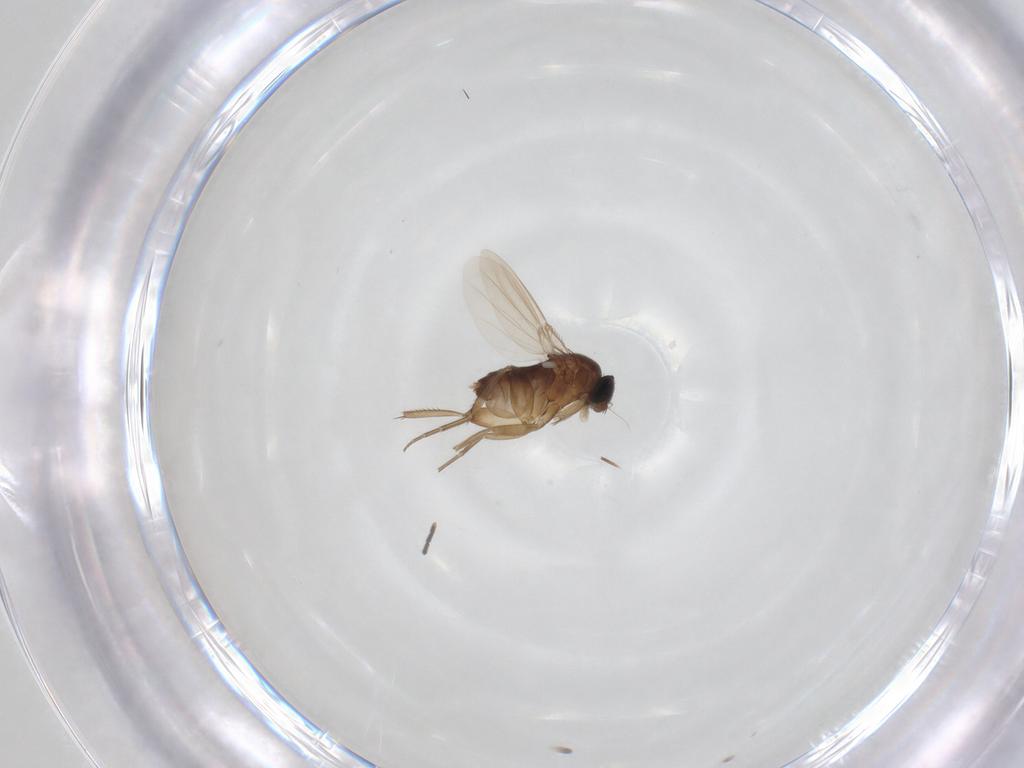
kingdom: Animalia
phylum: Arthropoda
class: Insecta
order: Diptera
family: Phoridae
